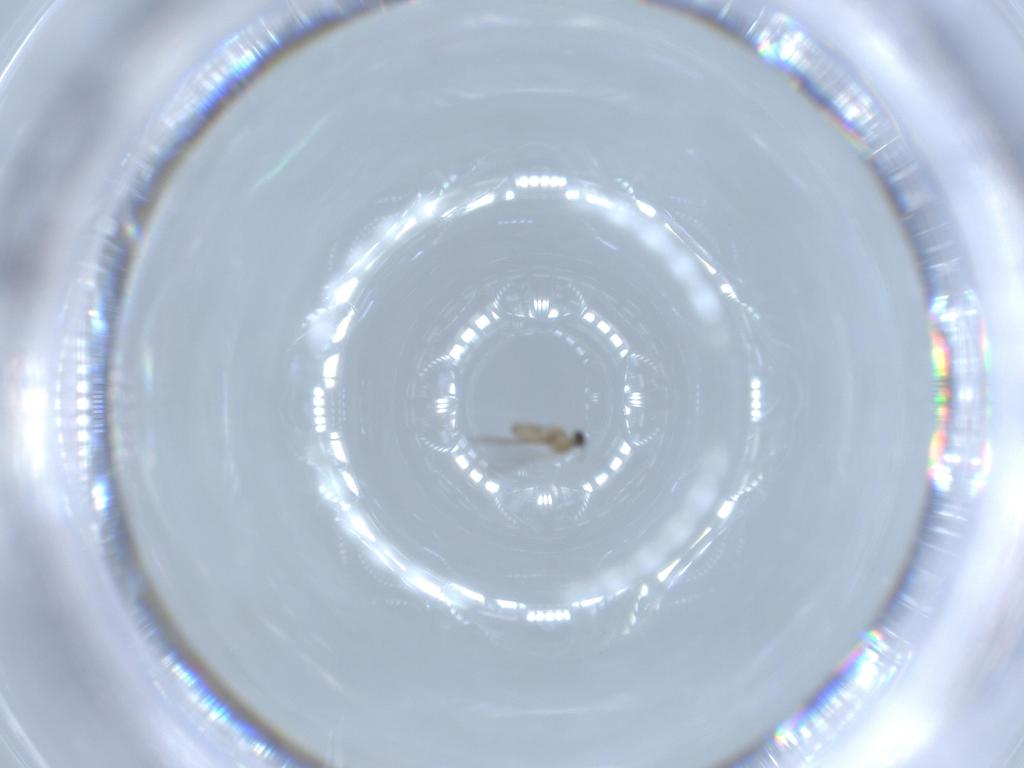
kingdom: Animalia
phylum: Arthropoda
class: Insecta
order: Diptera
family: Cecidomyiidae
